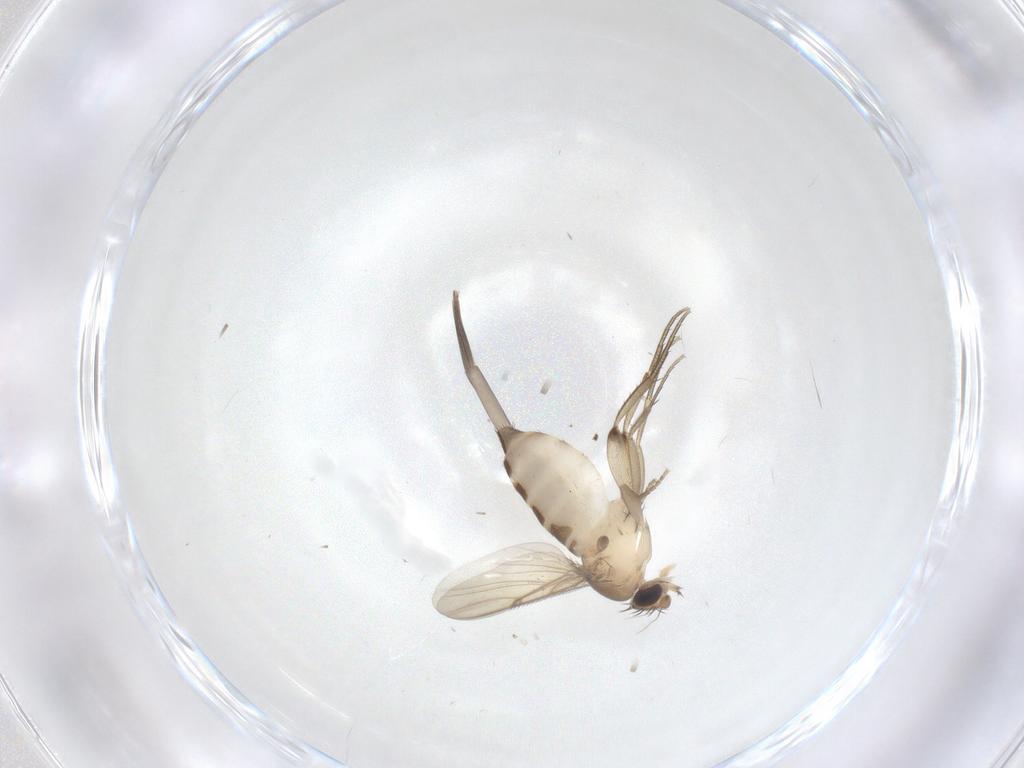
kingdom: Animalia
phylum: Arthropoda
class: Insecta
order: Diptera
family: Phoridae
